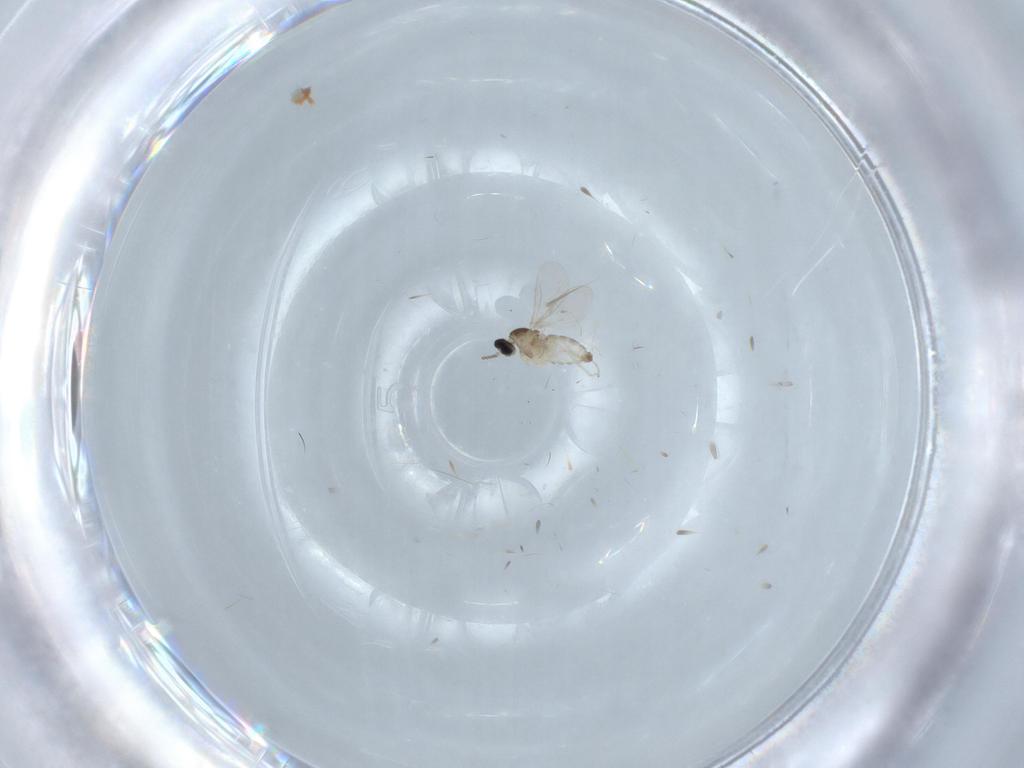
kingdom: Animalia
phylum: Arthropoda
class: Insecta
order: Diptera
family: Cecidomyiidae
